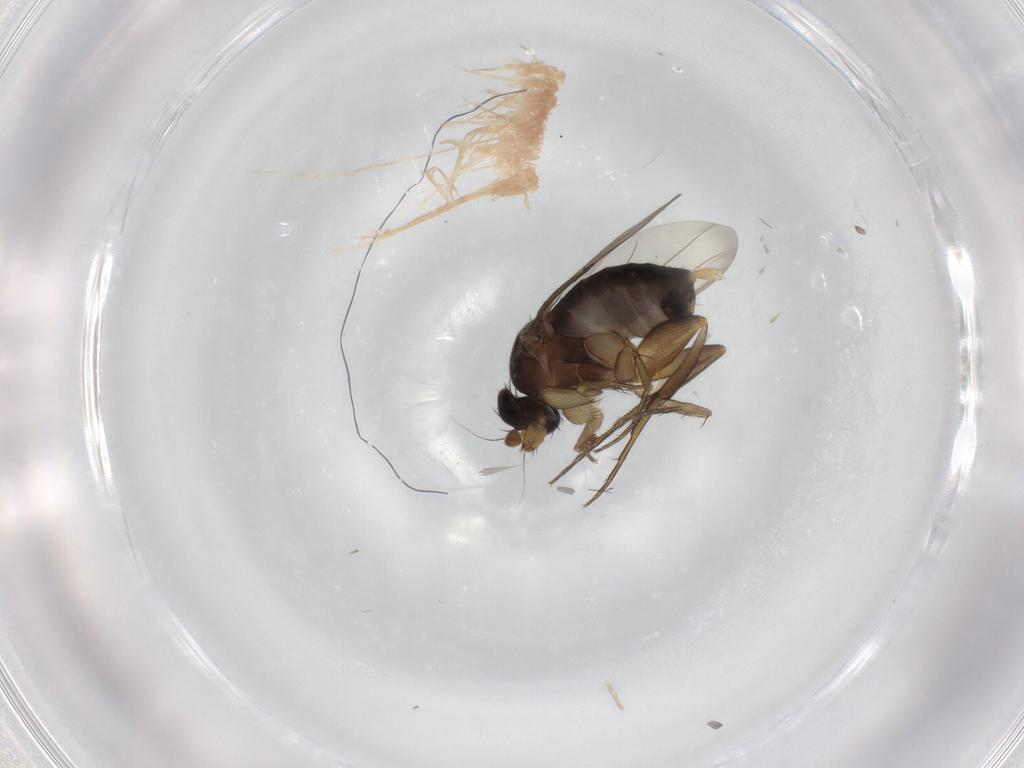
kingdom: Animalia
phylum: Arthropoda
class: Insecta
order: Diptera
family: Phoridae
